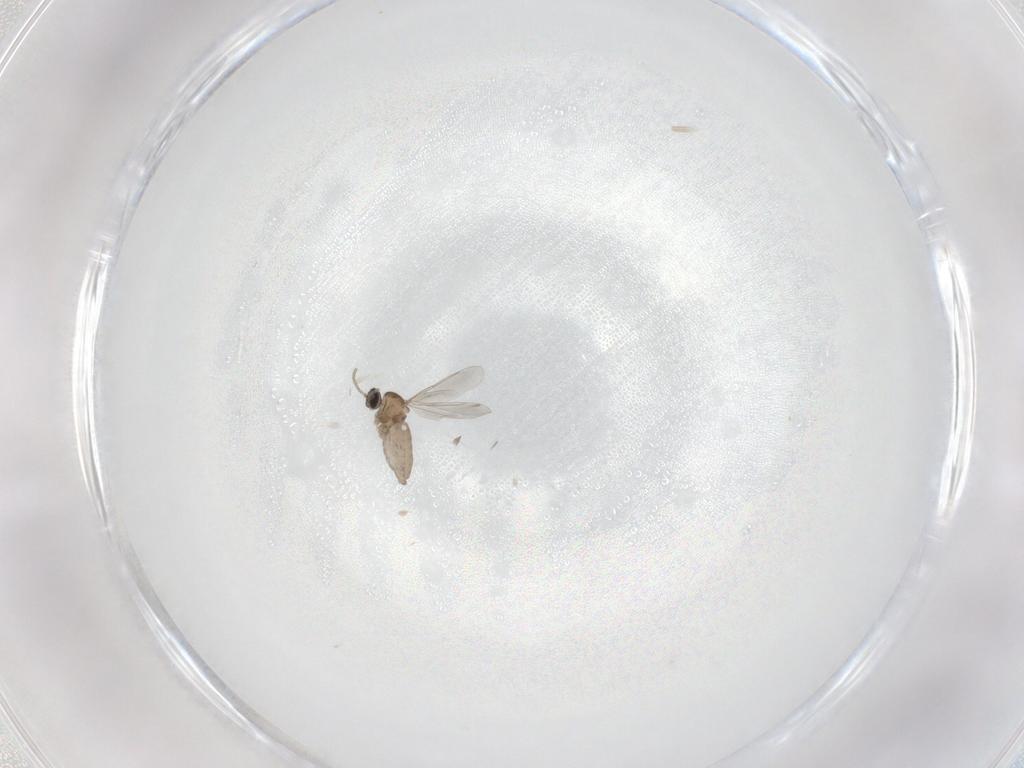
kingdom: Animalia
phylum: Arthropoda
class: Insecta
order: Diptera
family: Cecidomyiidae
